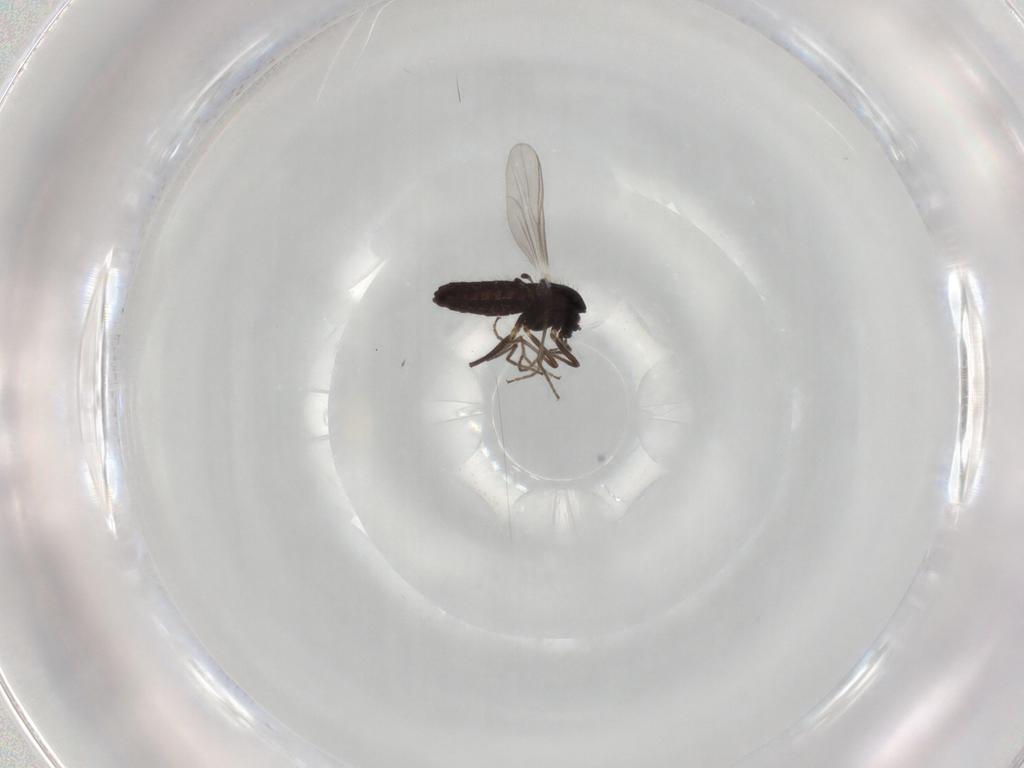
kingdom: Animalia
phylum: Arthropoda
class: Insecta
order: Diptera
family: Chironomidae
